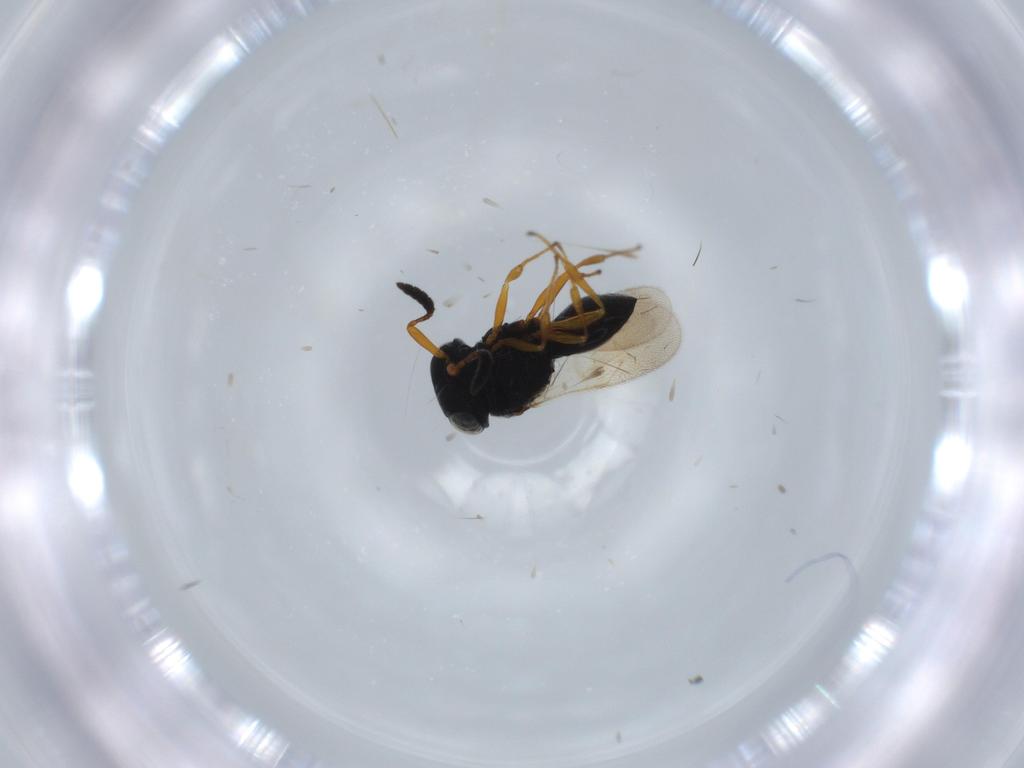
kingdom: Animalia
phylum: Arthropoda
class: Insecta
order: Hymenoptera
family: Scelionidae
